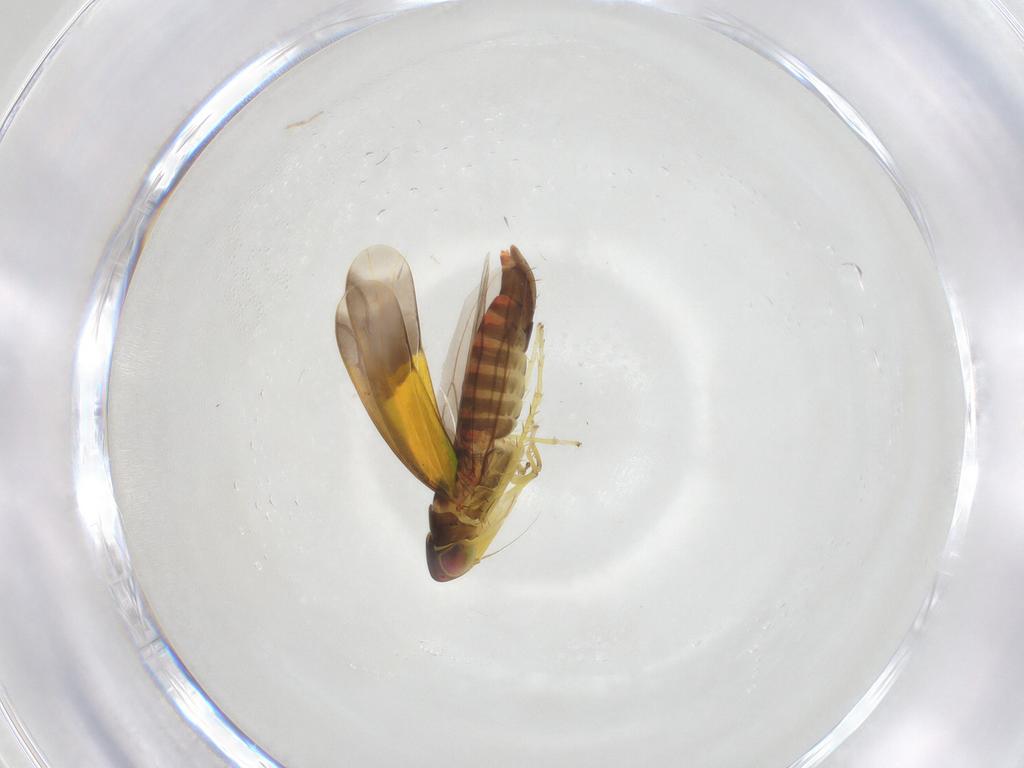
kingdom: Animalia
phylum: Arthropoda
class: Insecta
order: Hemiptera
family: Cicadellidae
